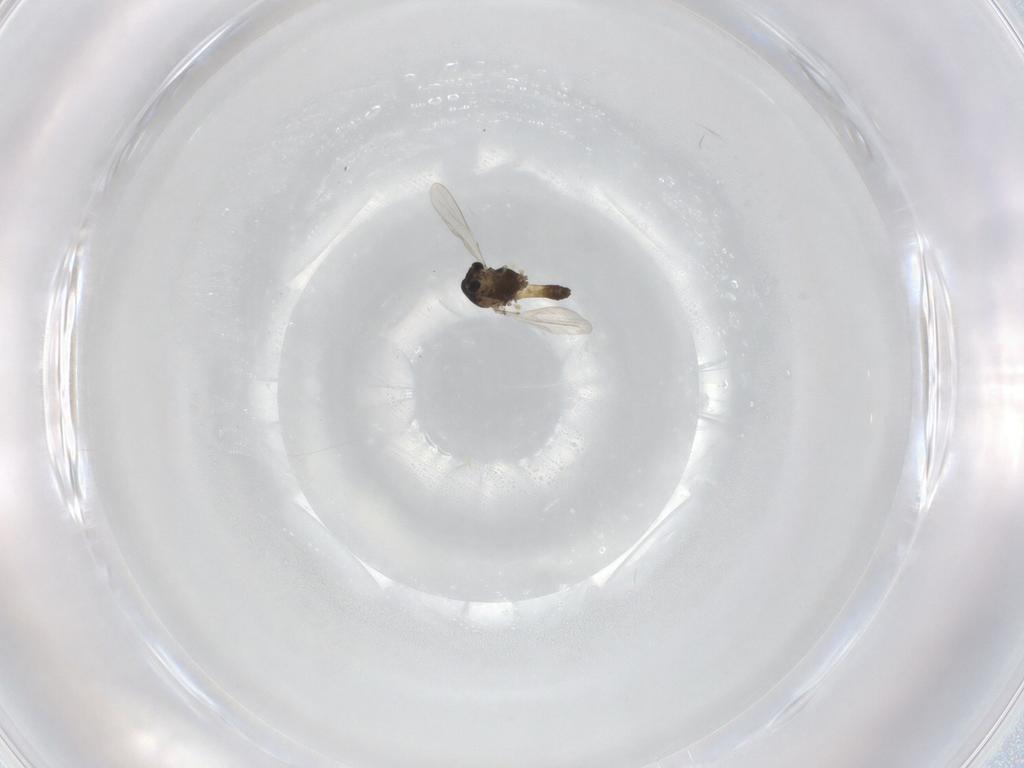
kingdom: Animalia
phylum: Arthropoda
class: Insecta
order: Diptera
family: Chironomidae
